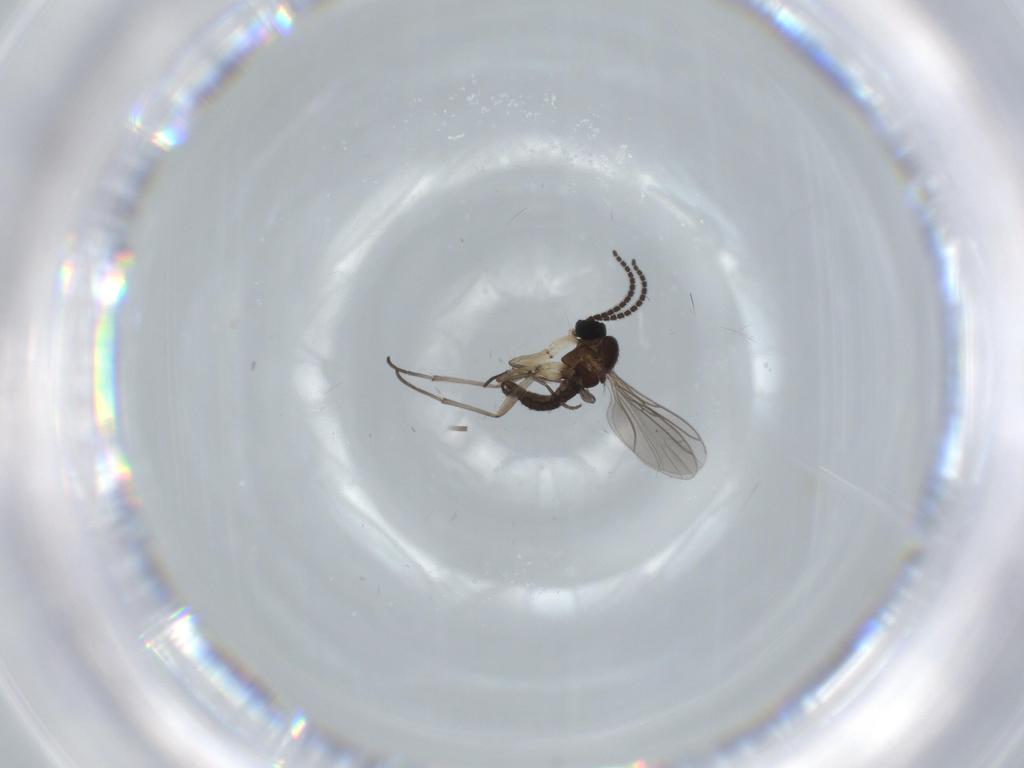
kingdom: Animalia
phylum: Arthropoda
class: Insecta
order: Diptera
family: Sciaridae
